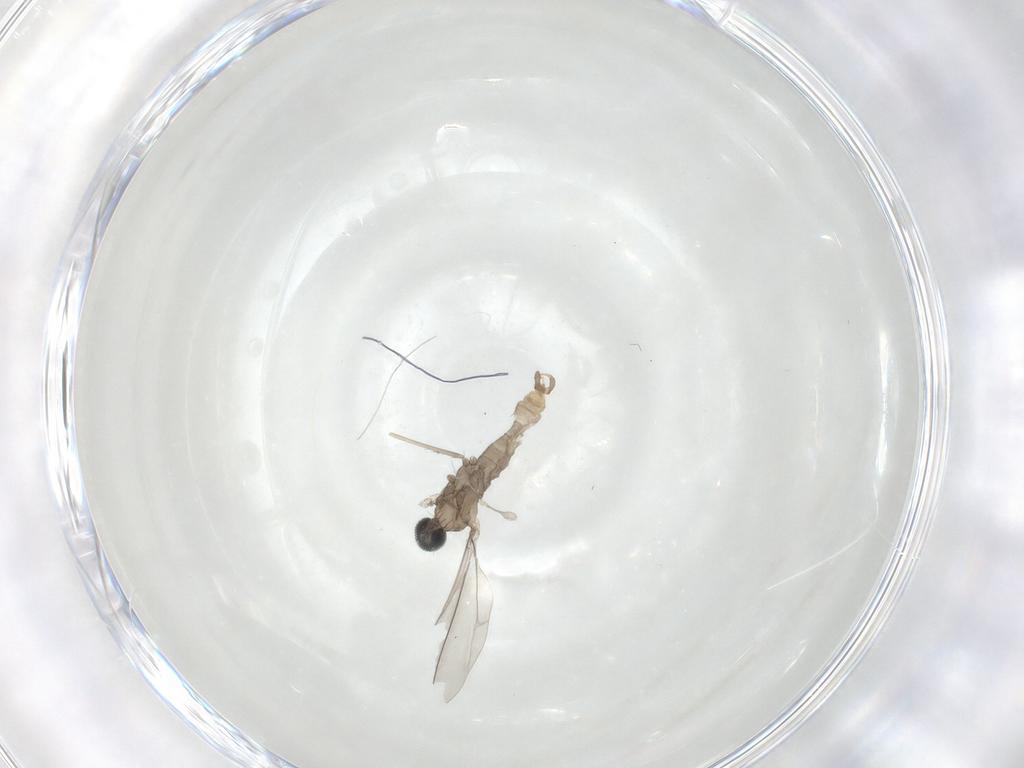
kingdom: Animalia
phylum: Arthropoda
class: Insecta
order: Diptera
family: Cecidomyiidae
